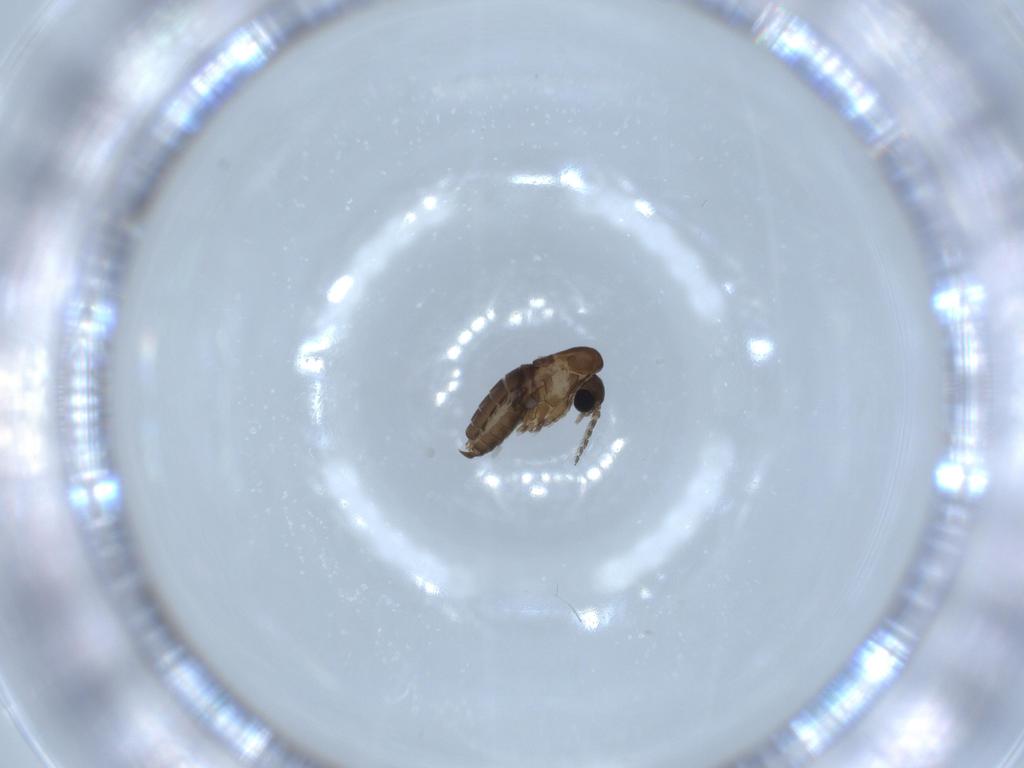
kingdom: Animalia
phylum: Arthropoda
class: Insecta
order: Diptera
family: Psychodidae
